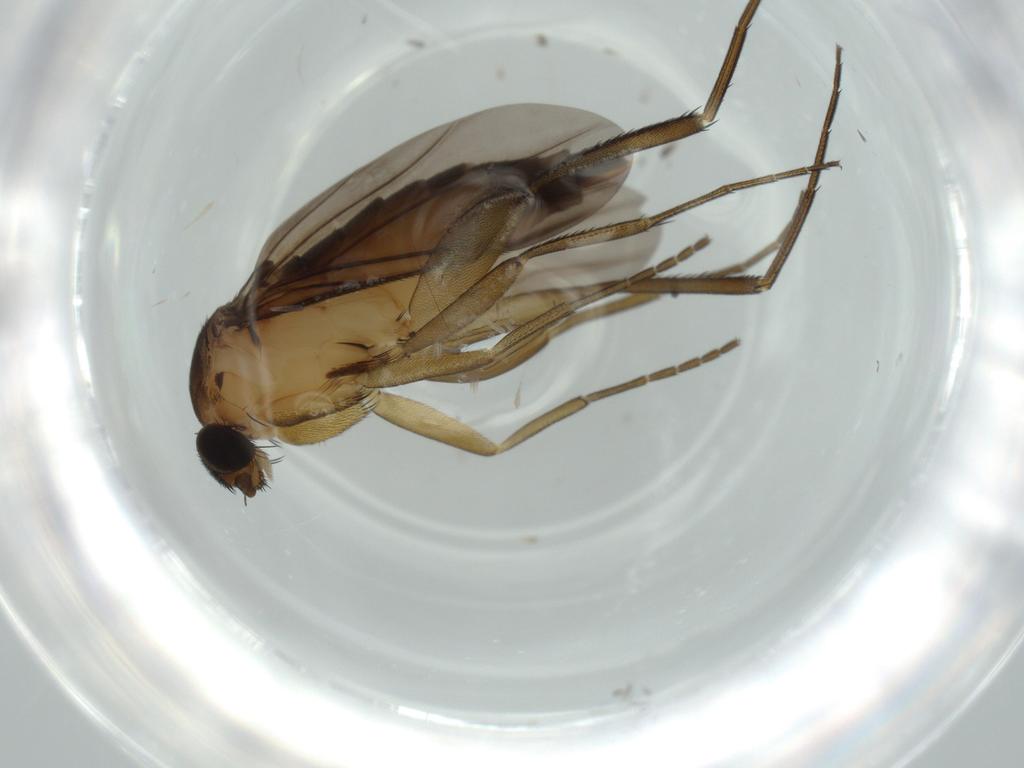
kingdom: Animalia
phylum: Arthropoda
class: Insecta
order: Diptera
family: Phoridae
